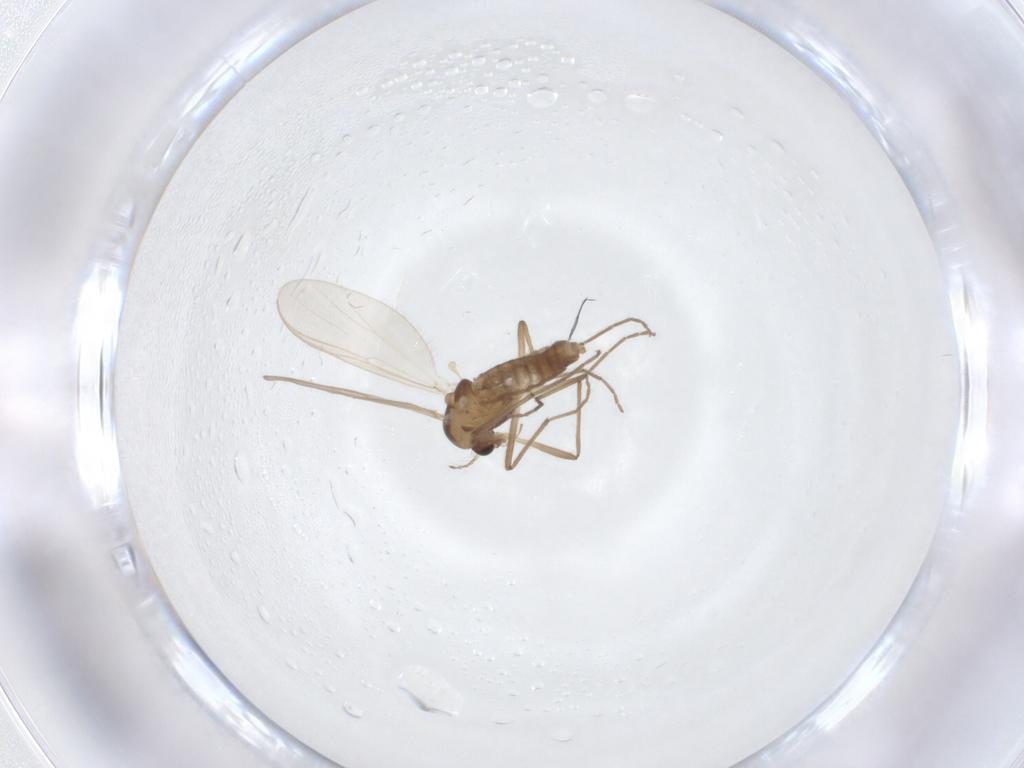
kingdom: Animalia
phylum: Arthropoda
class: Insecta
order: Diptera
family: Chironomidae
